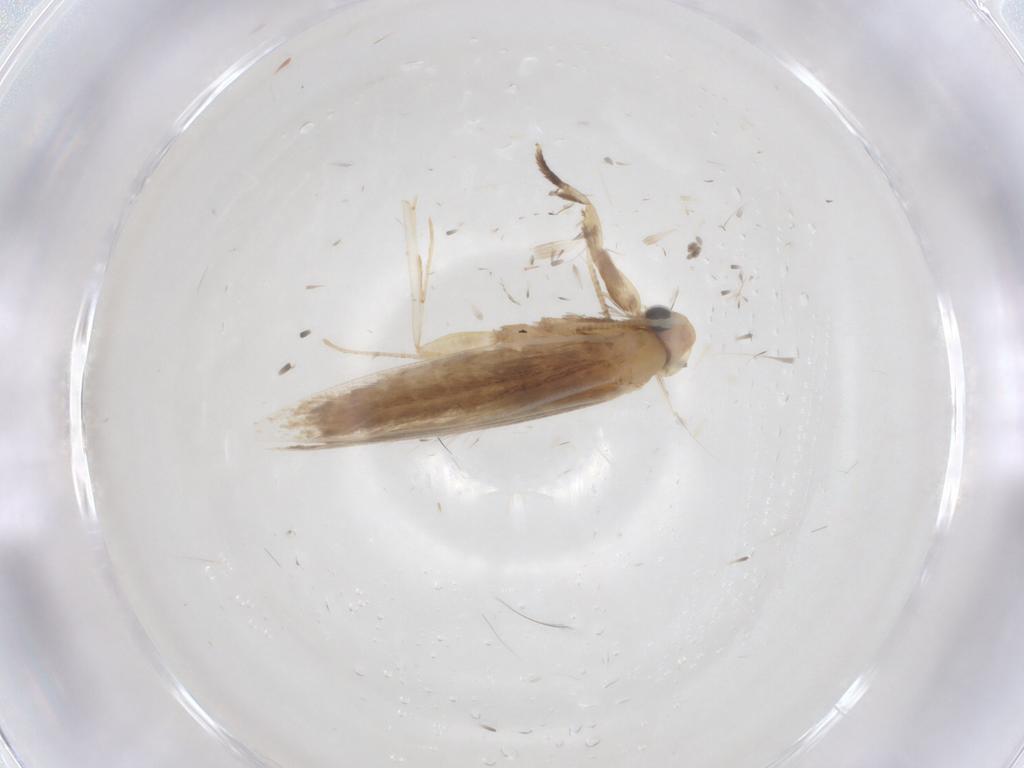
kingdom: Animalia
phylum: Arthropoda
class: Insecta
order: Lepidoptera
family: Tineidae
